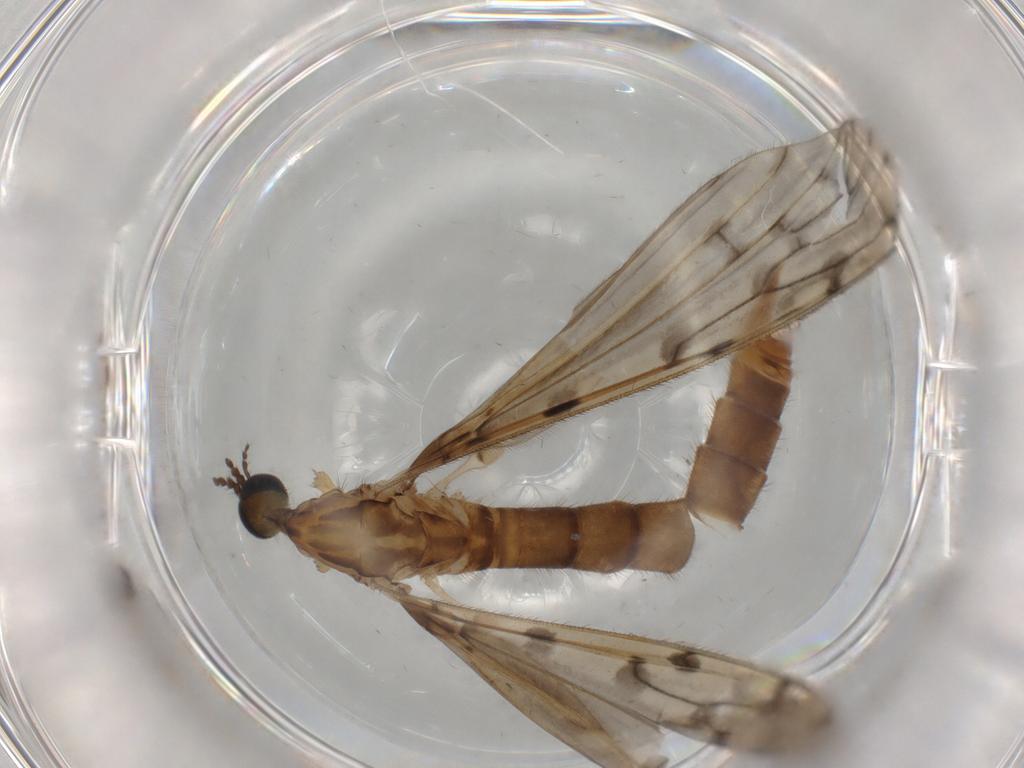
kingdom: Animalia
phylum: Arthropoda
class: Insecta
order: Diptera
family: Limoniidae
